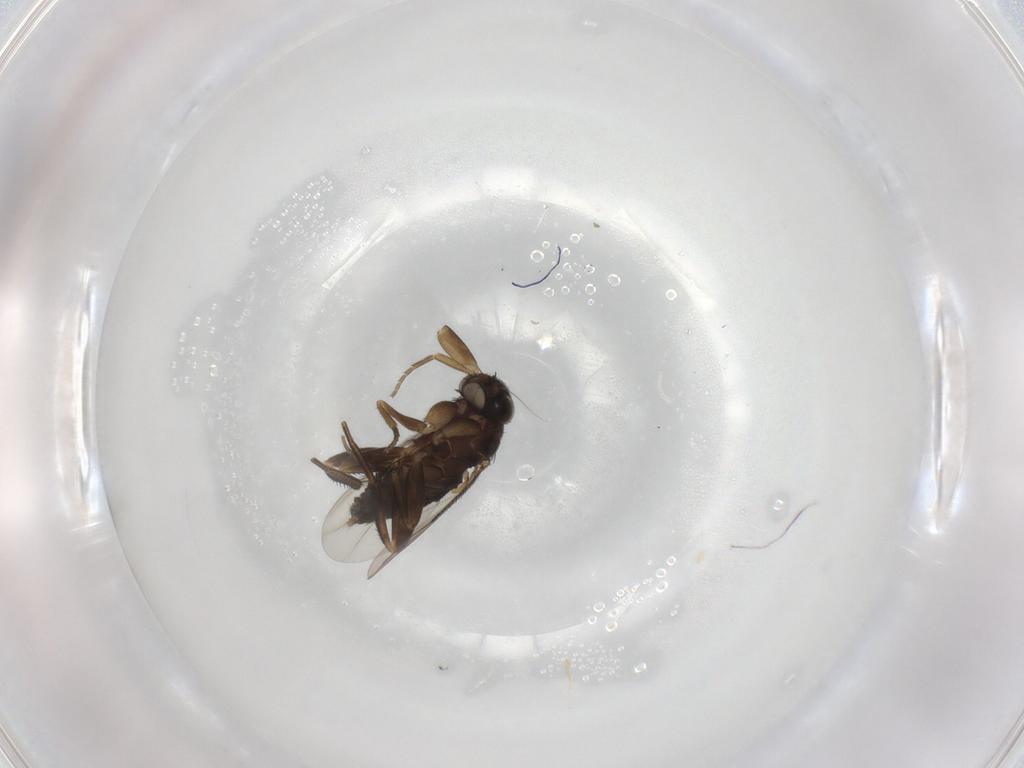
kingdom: Animalia
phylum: Arthropoda
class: Insecta
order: Diptera
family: Phoridae
